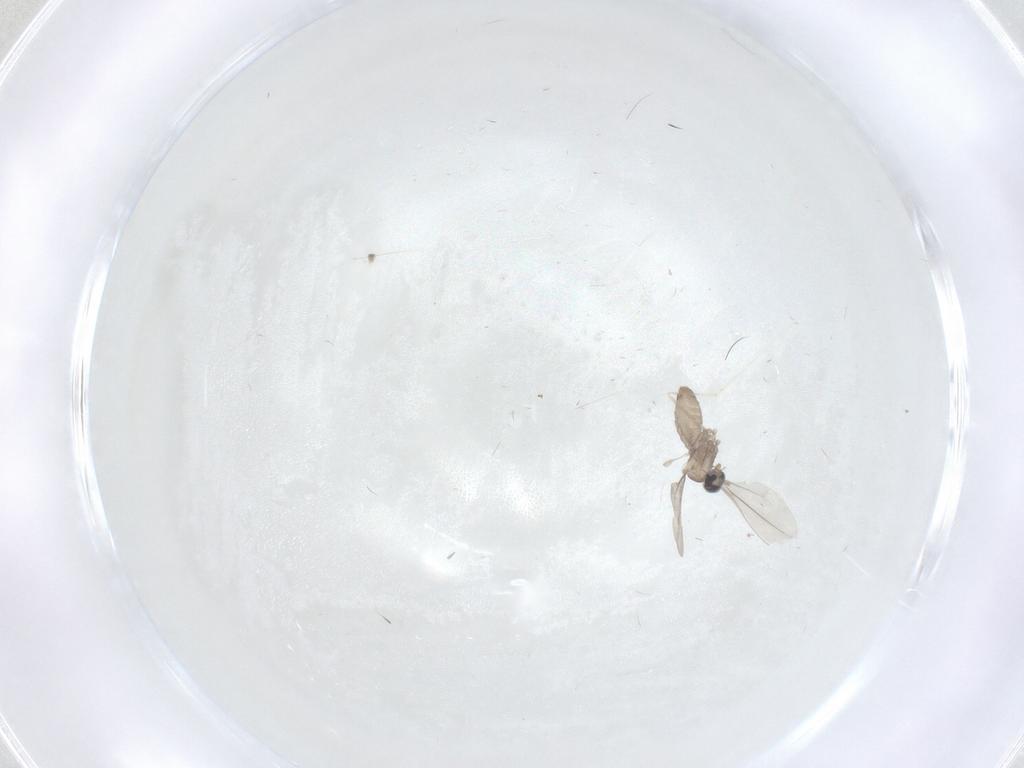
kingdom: Animalia
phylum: Arthropoda
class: Insecta
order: Diptera
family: Cecidomyiidae
